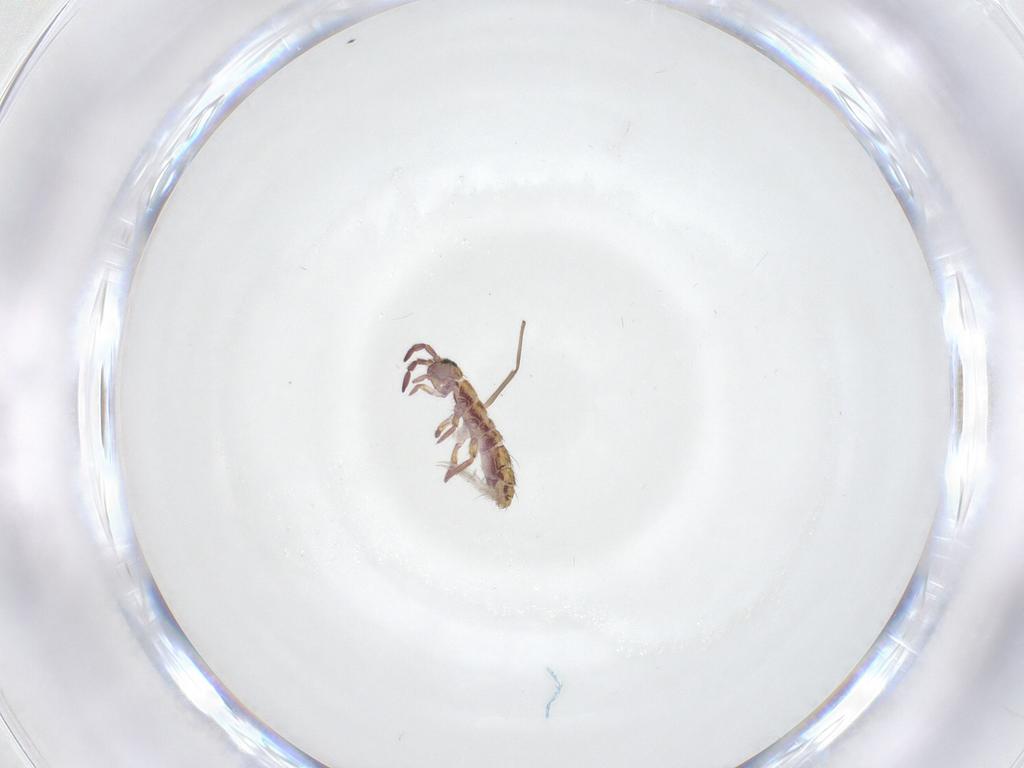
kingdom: Animalia
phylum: Arthropoda
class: Collembola
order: Entomobryomorpha
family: Isotomidae
